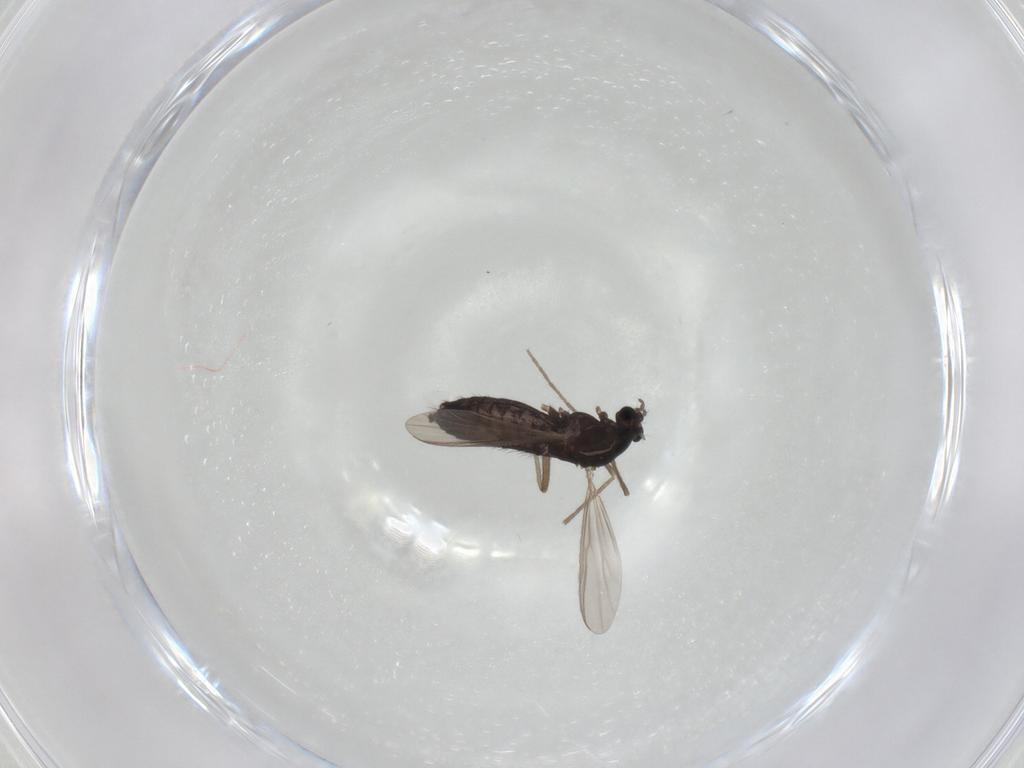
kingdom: Animalia
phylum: Arthropoda
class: Insecta
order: Diptera
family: Chironomidae
